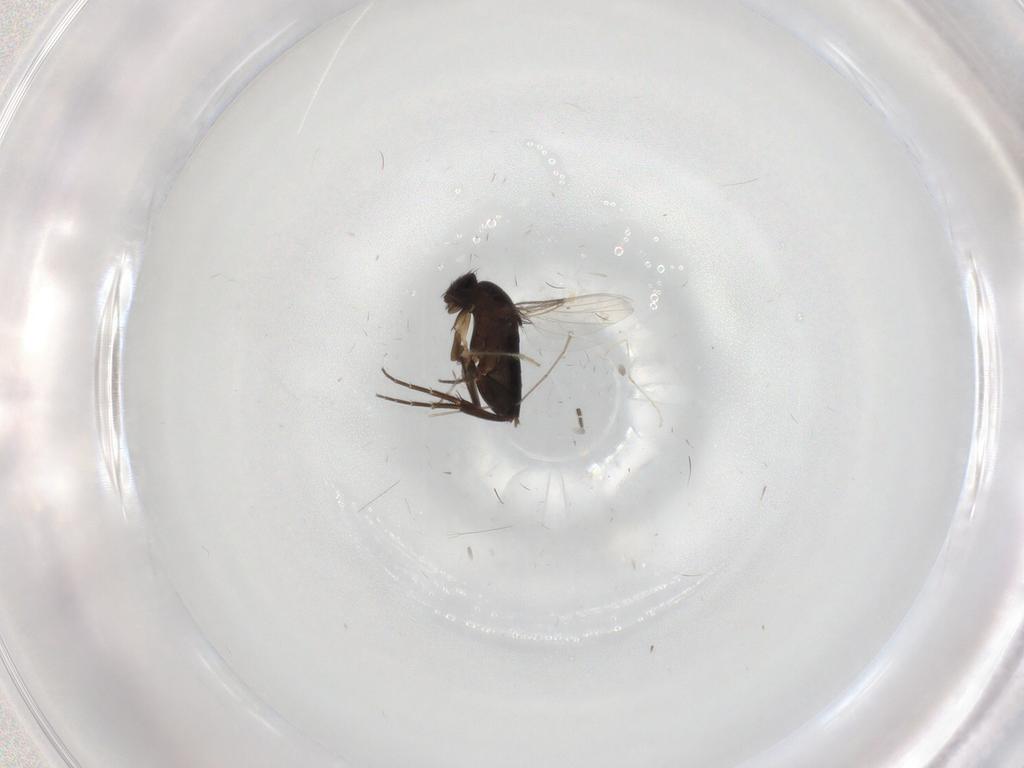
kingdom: Animalia
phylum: Arthropoda
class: Insecta
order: Diptera
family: Phoridae
